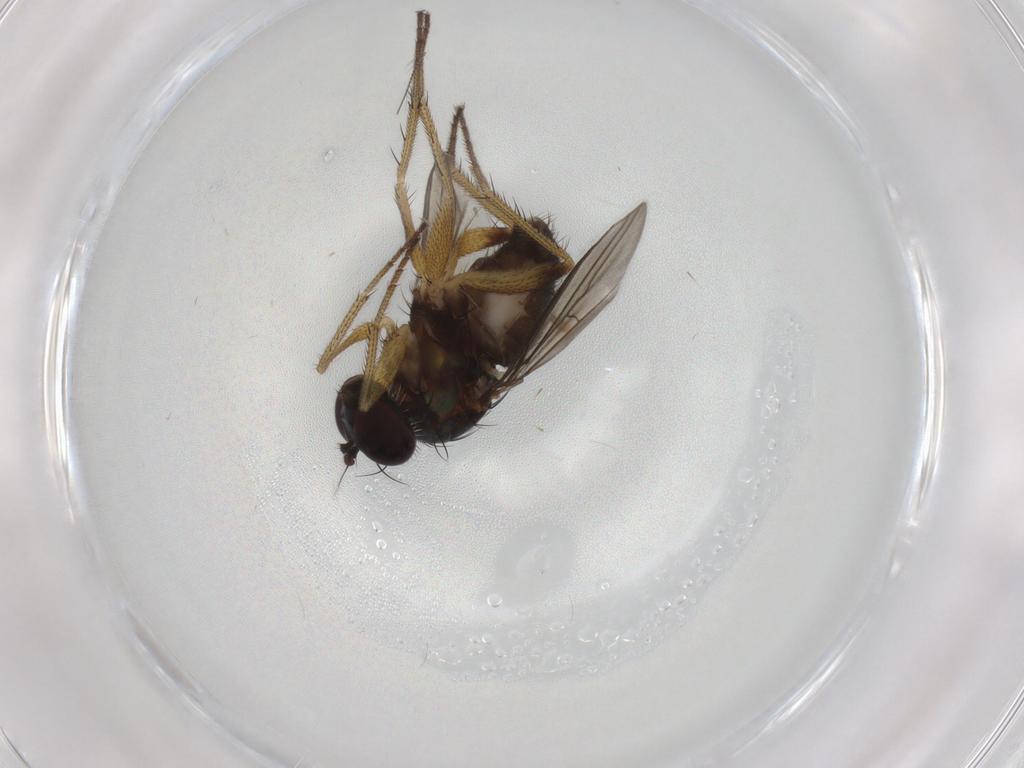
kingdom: Animalia
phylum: Arthropoda
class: Insecta
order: Diptera
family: Dolichopodidae
